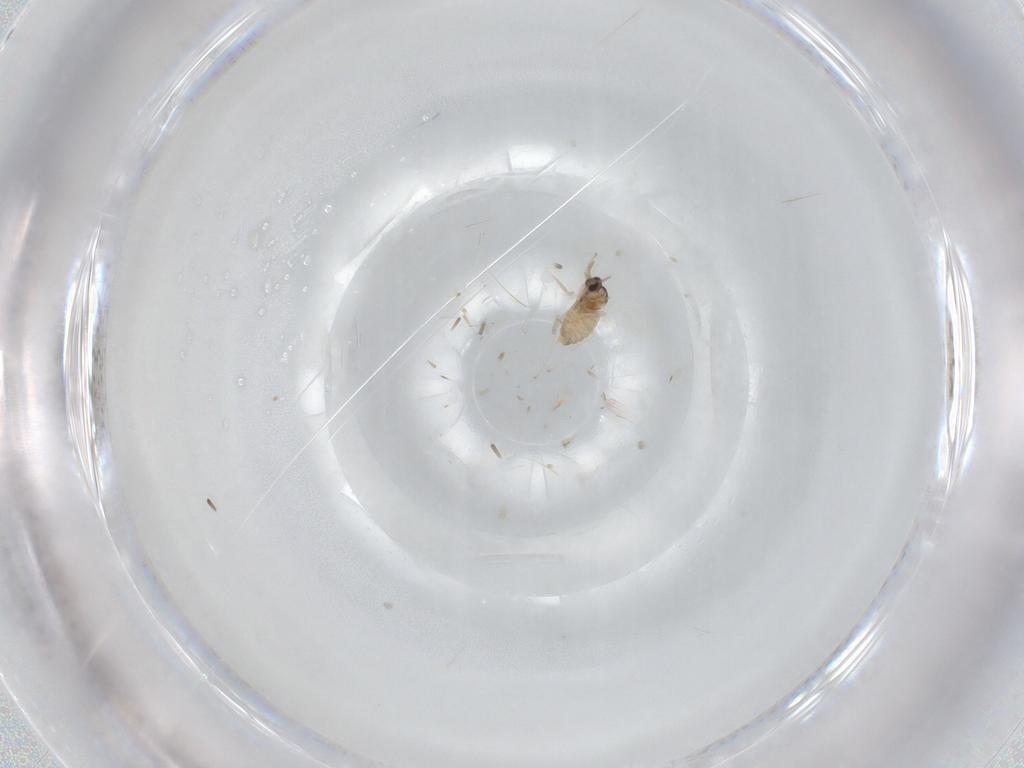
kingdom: Animalia
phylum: Arthropoda
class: Insecta
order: Diptera
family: Cecidomyiidae
